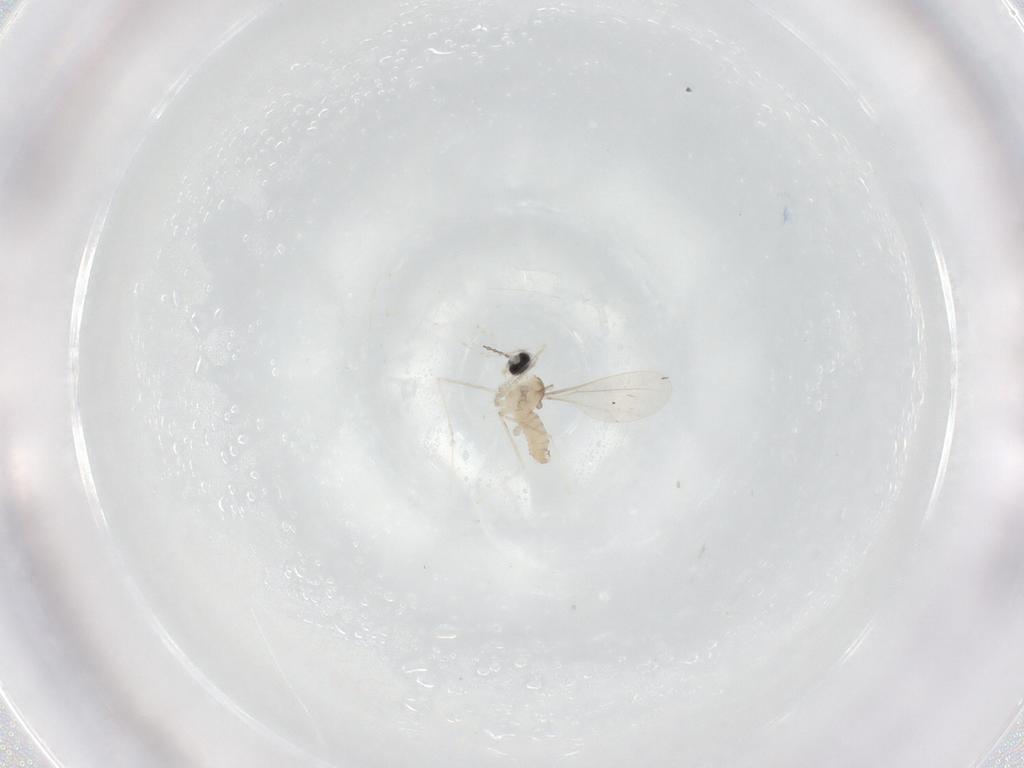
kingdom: Animalia
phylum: Arthropoda
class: Insecta
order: Diptera
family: Cecidomyiidae
